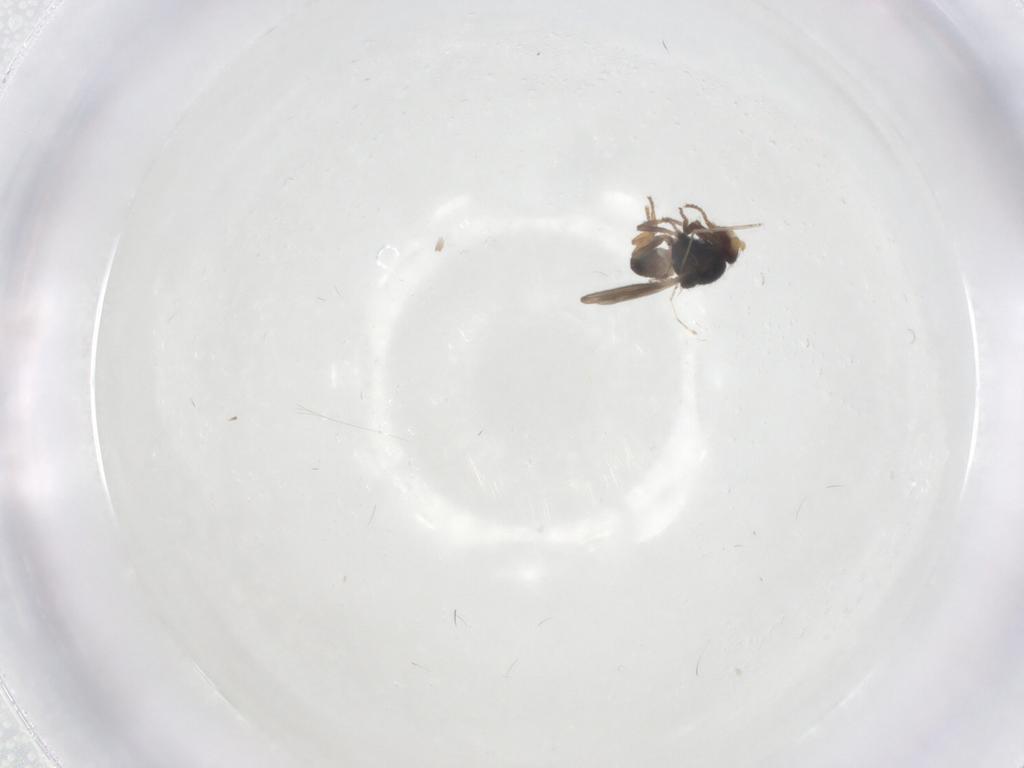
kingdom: Animalia
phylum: Arthropoda
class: Insecta
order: Diptera
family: Sphaeroceridae
